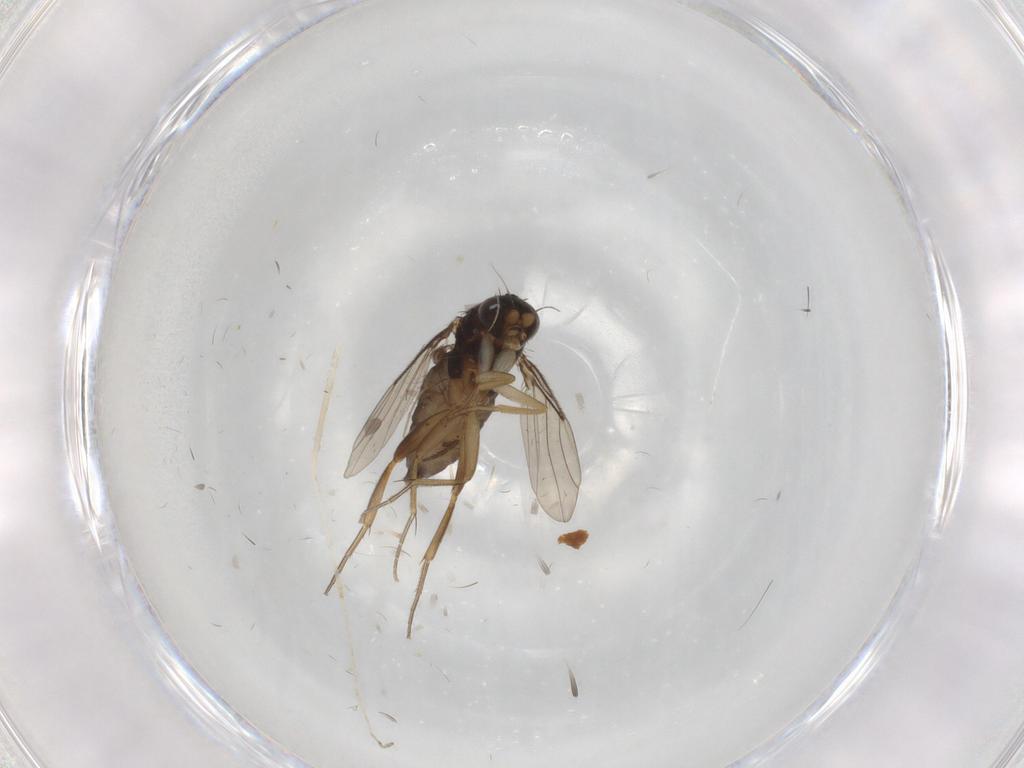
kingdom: Animalia
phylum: Arthropoda
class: Insecta
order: Diptera
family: Phoridae
